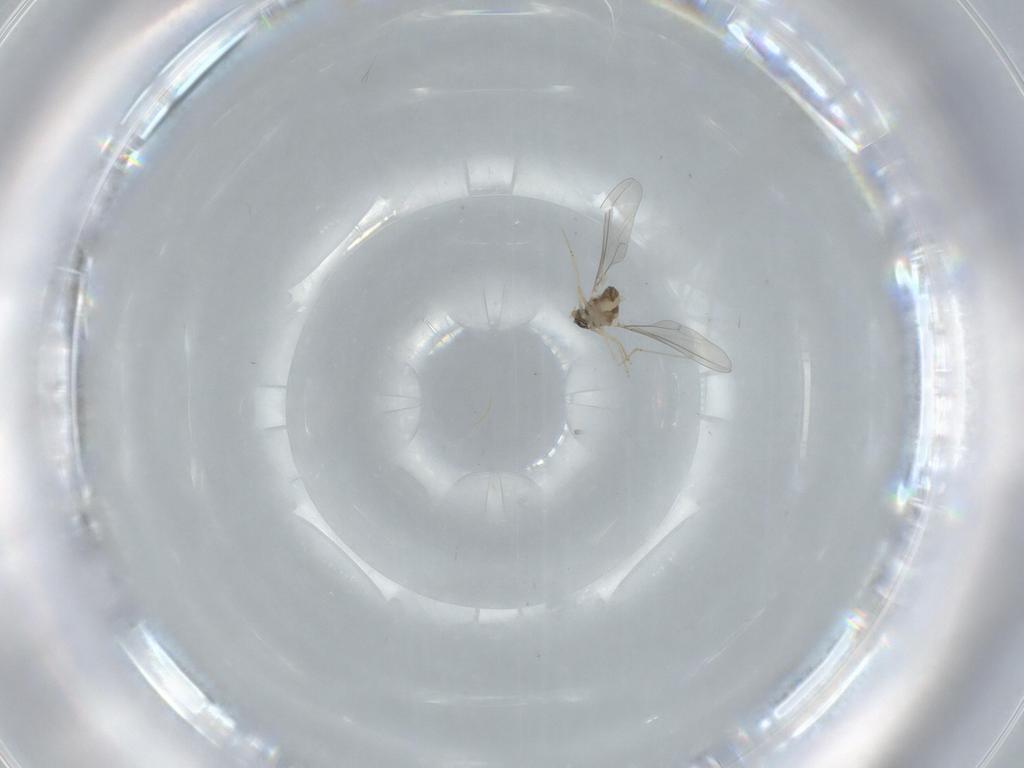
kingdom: Animalia
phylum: Arthropoda
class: Insecta
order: Diptera
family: Cecidomyiidae
